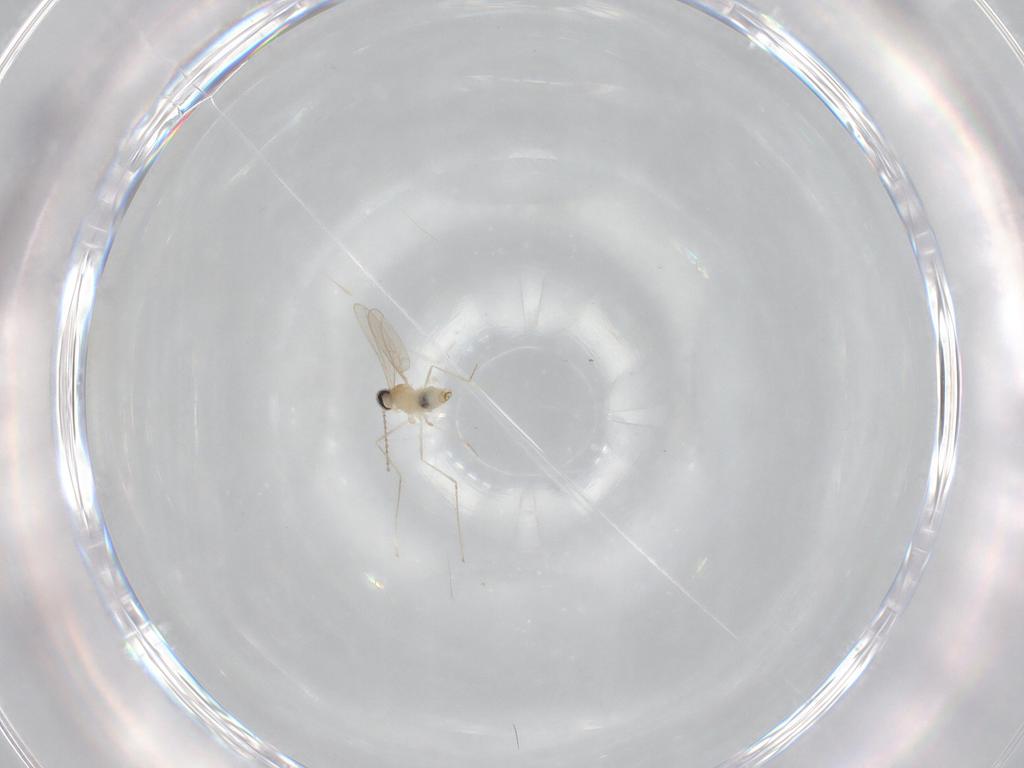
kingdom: Animalia
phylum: Arthropoda
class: Insecta
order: Diptera
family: Cecidomyiidae
